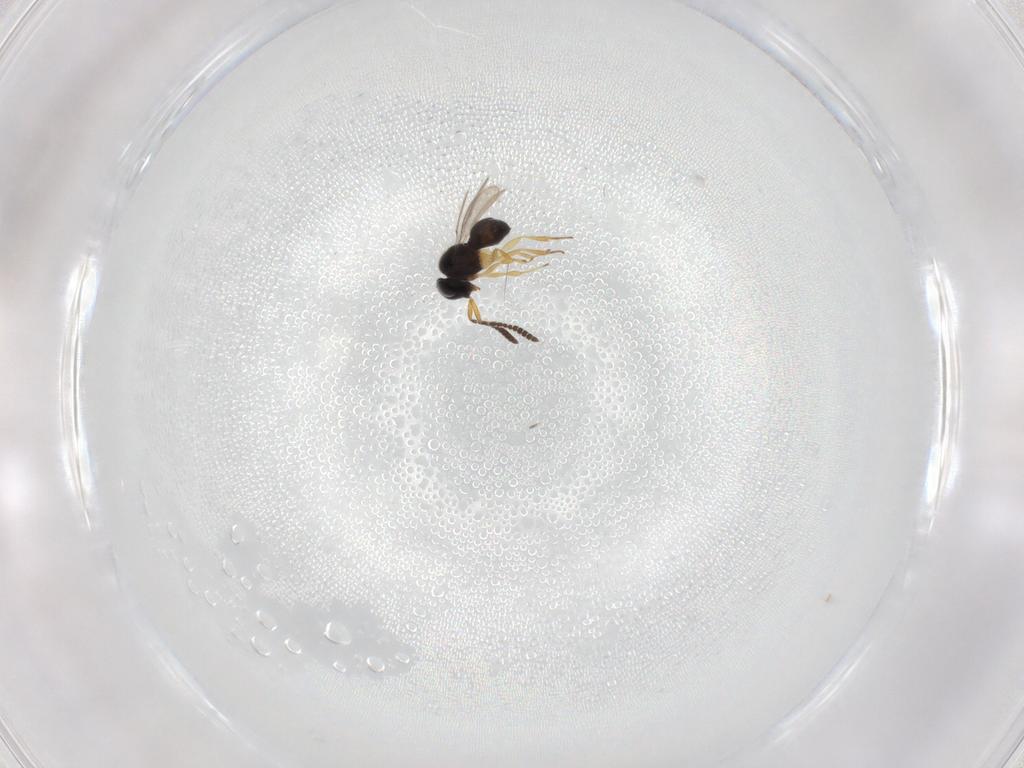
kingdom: Animalia
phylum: Arthropoda
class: Insecta
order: Hymenoptera
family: Scelionidae
